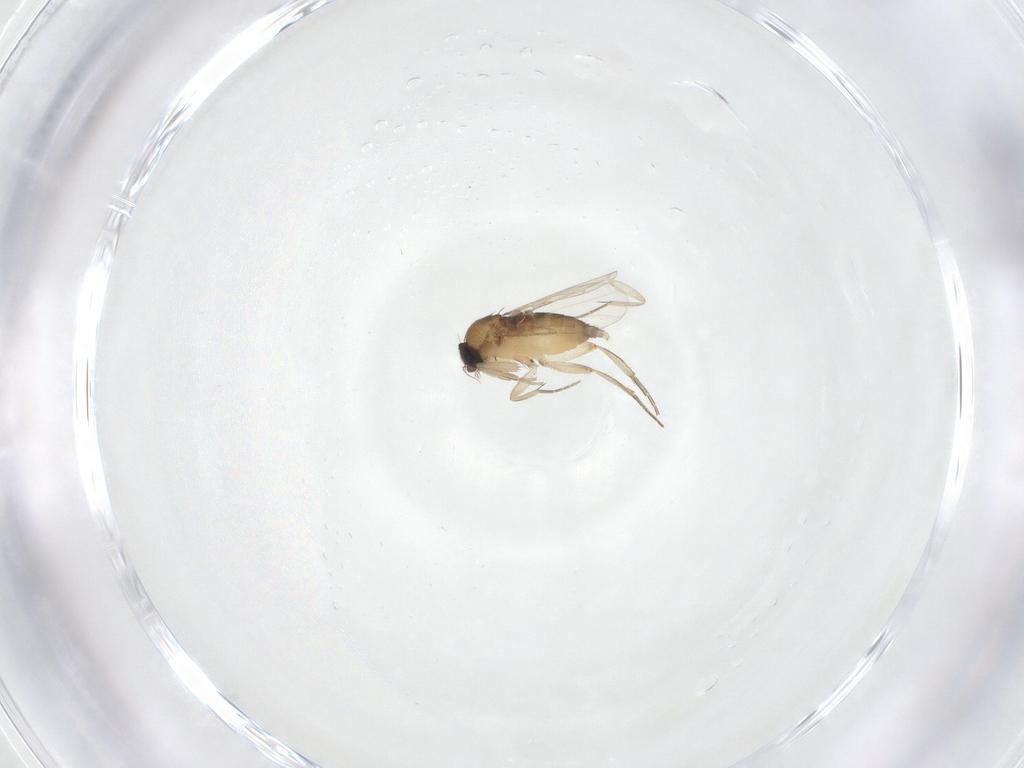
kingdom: Animalia
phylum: Arthropoda
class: Insecta
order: Diptera
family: Phoridae
